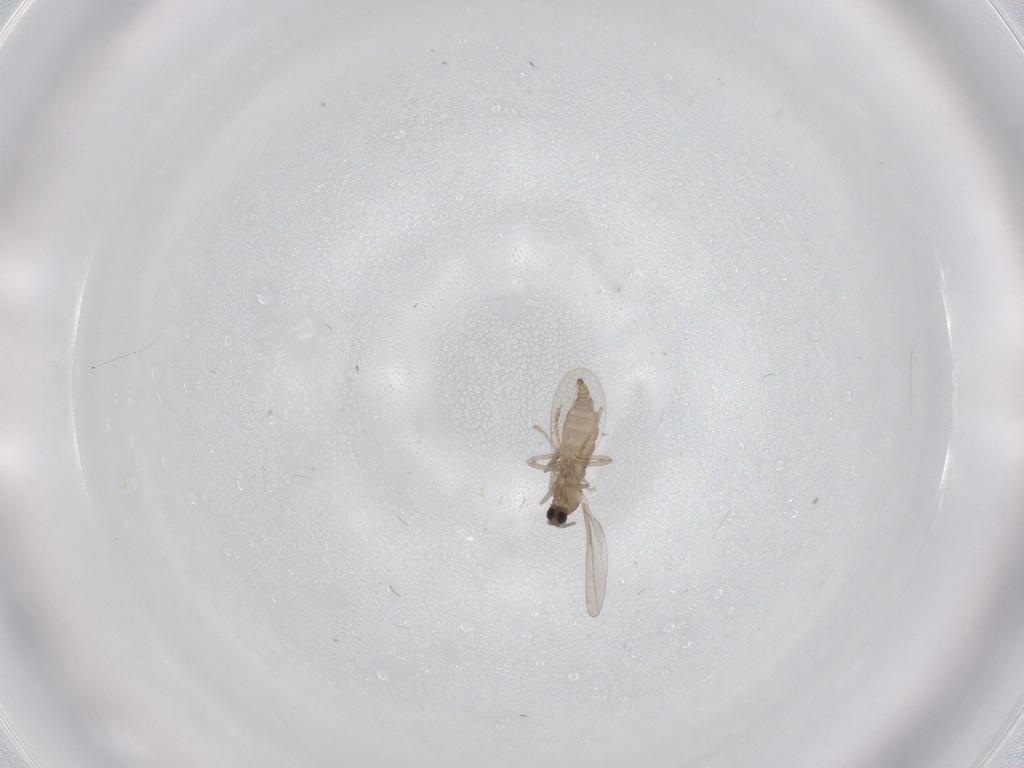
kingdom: Animalia
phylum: Arthropoda
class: Insecta
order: Diptera
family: Cecidomyiidae
